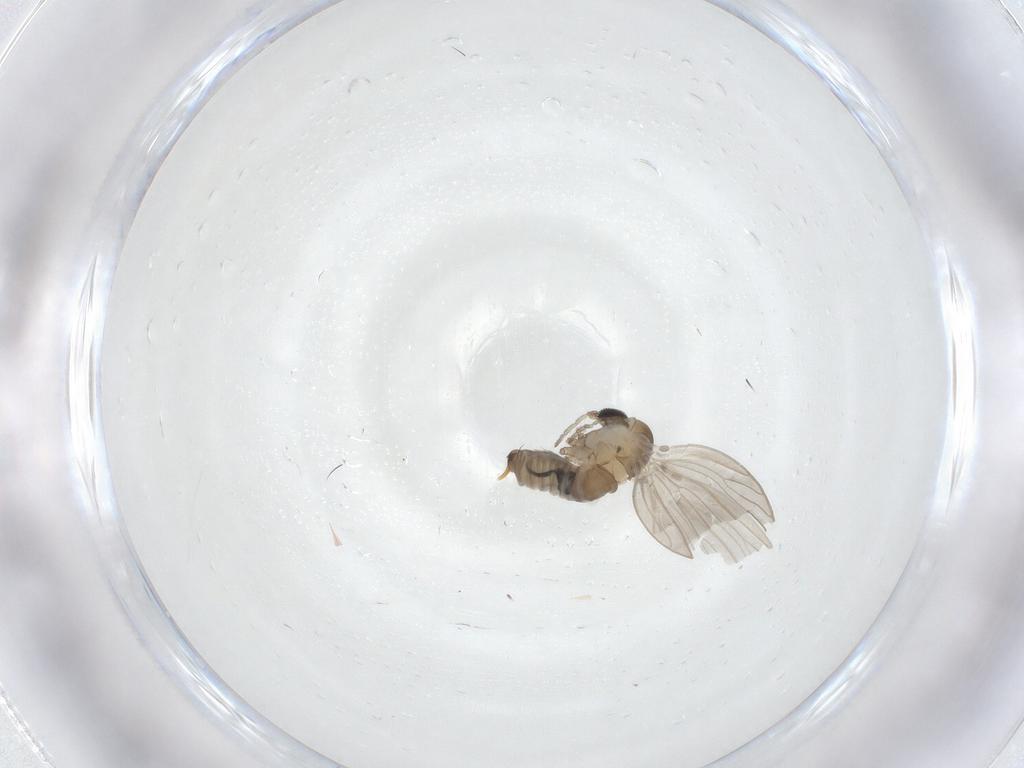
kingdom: Animalia
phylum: Arthropoda
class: Insecta
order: Diptera
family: Psychodidae
